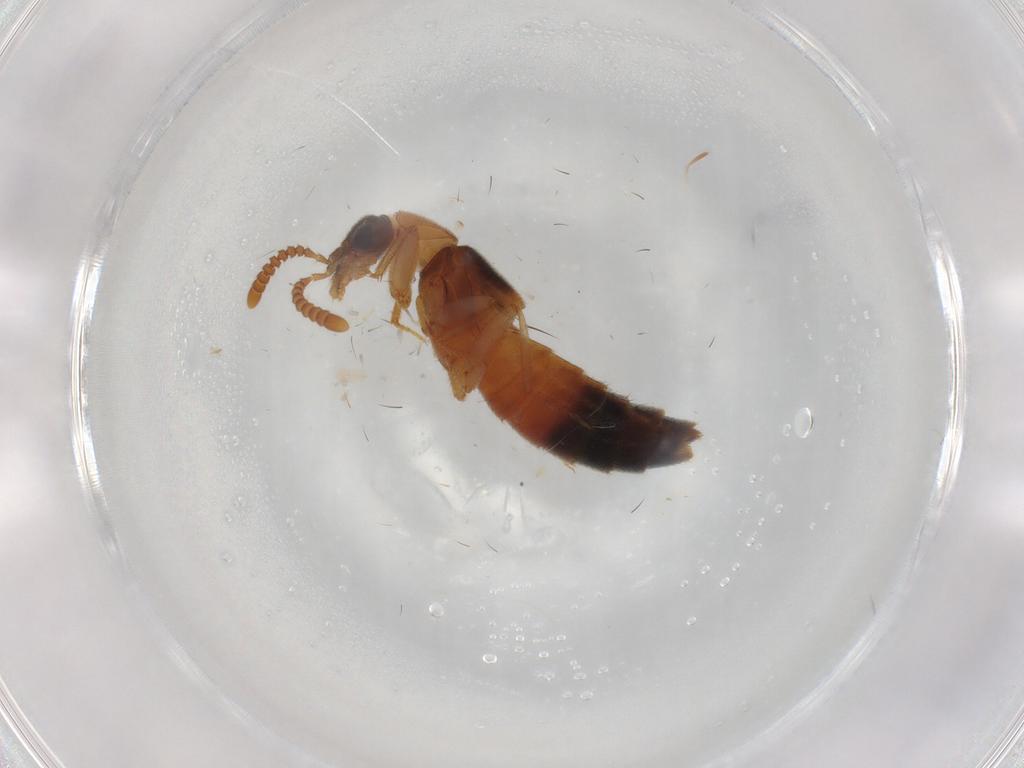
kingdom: Animalia
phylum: Arthropoda
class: Insecta
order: Coleoptera
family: Staphylinidae
